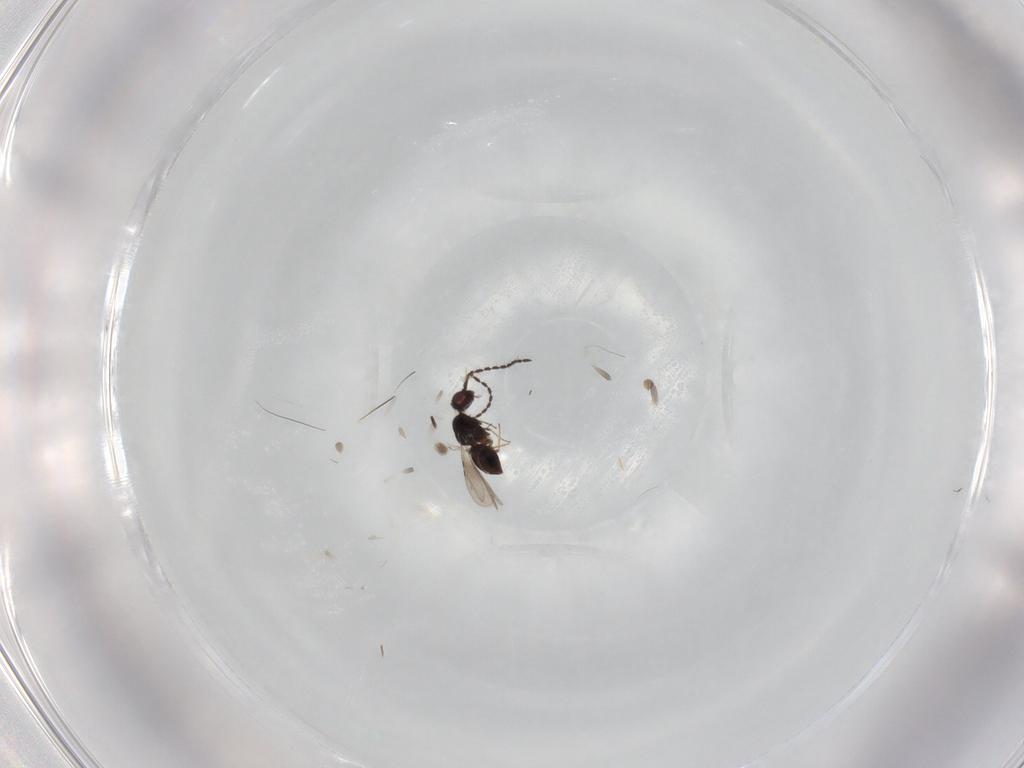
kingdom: Animalia
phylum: Arthropoda
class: Insecta
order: Hymenoptera
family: Ceraphronidae
